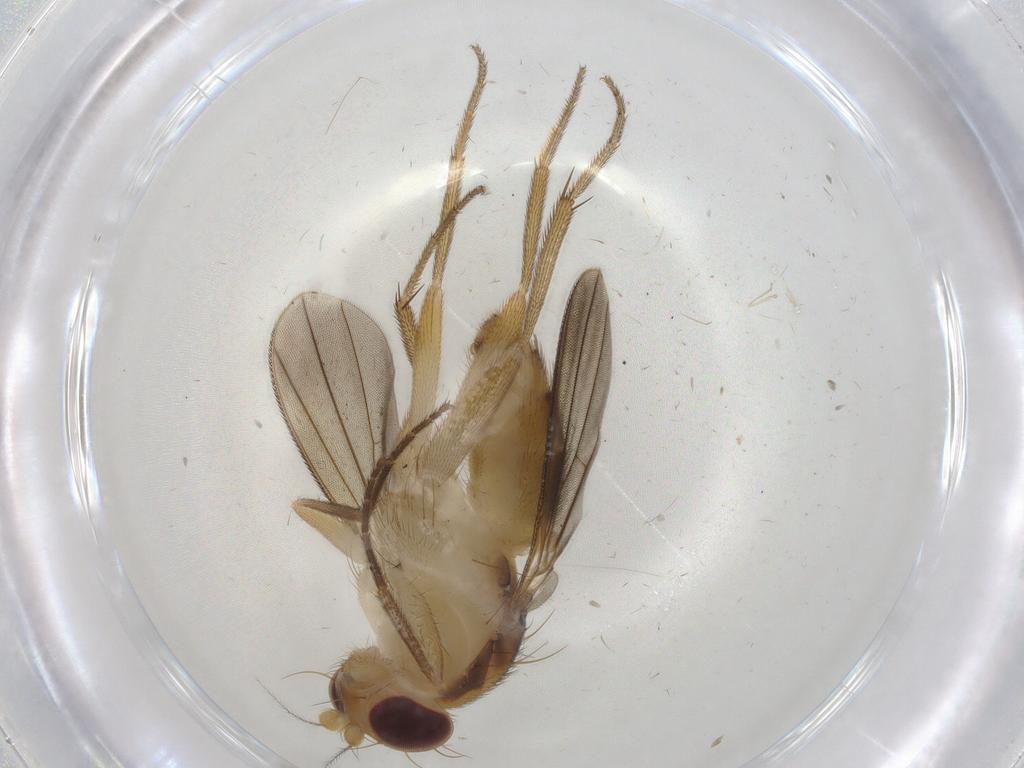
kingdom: Animalia
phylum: Arthropoda
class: Insecta
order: Diptera
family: Clusiidae
